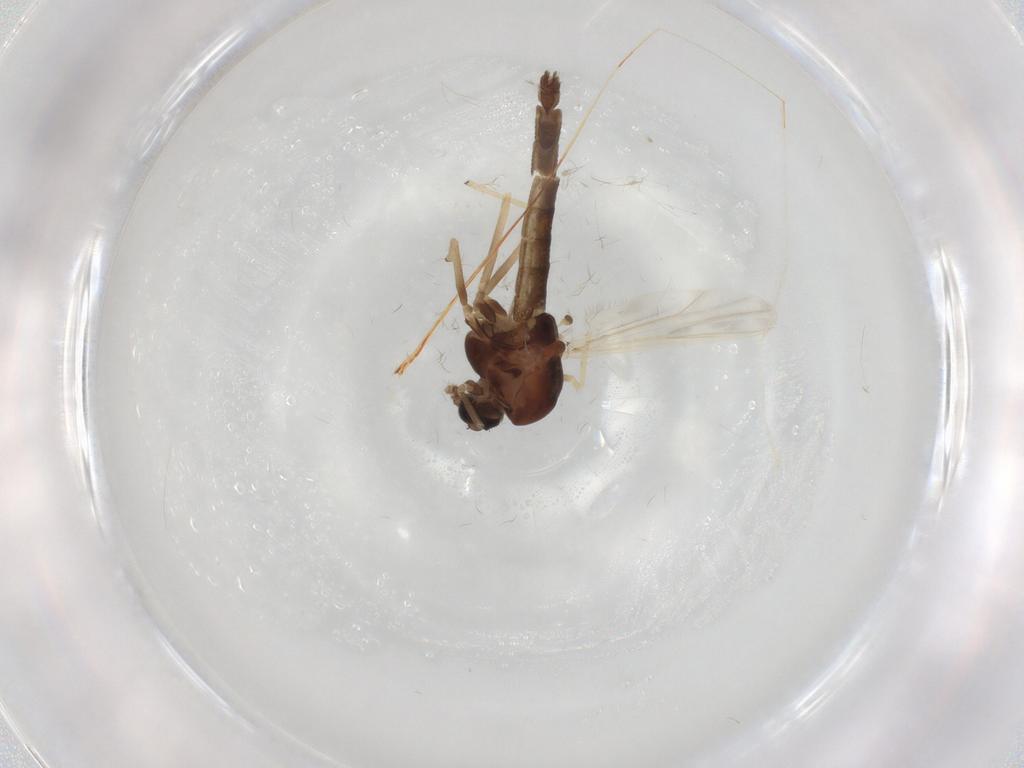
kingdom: Animalia
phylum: Arthropoda
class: Insecta
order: Diptera
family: Chironomidae
